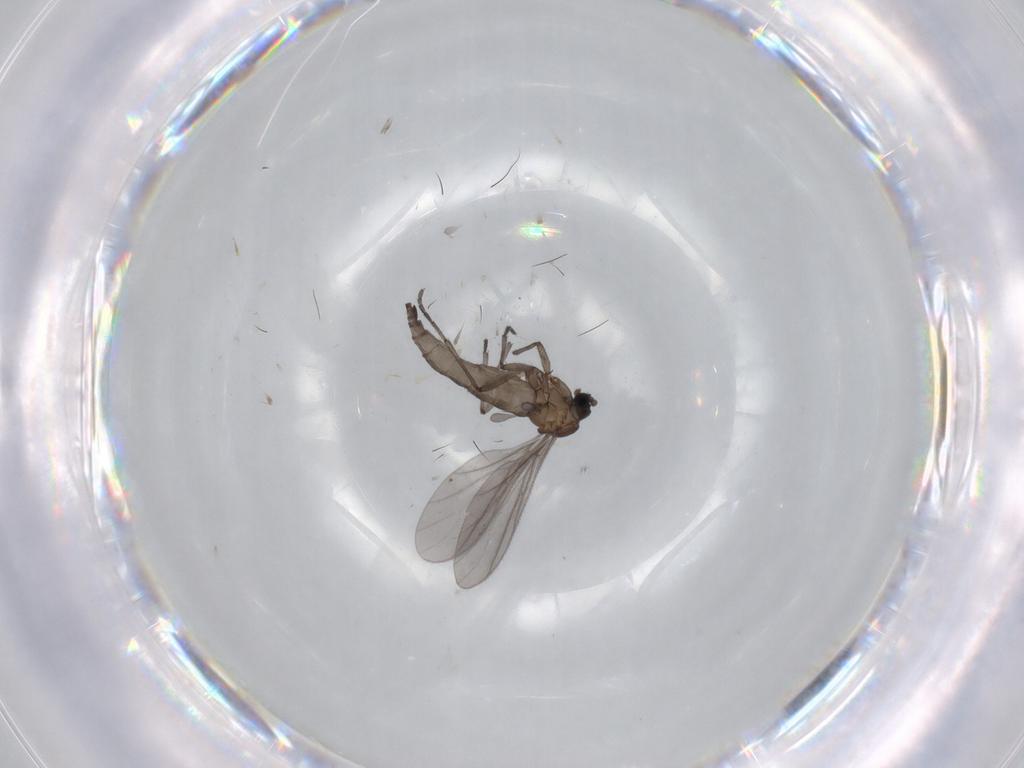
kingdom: Animalia
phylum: Arthropoda
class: Insecta
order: Diptera
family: Sciaridae
